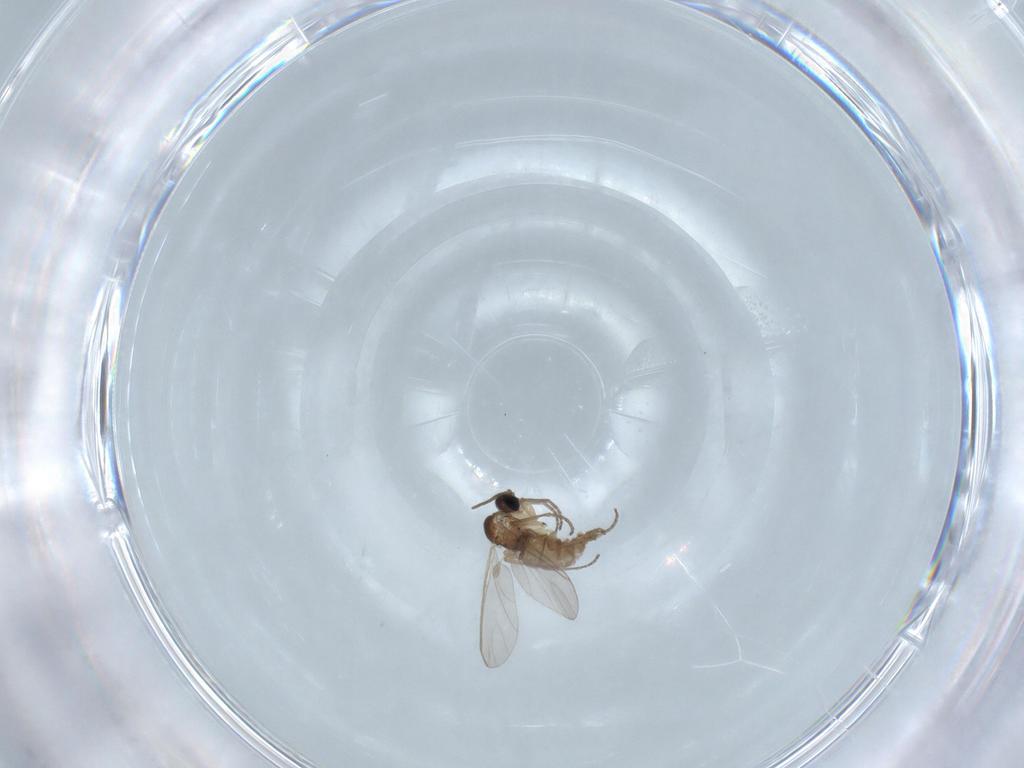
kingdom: Animalia
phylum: Arthropoda
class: Insecta
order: Diptera
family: Sciaridae
